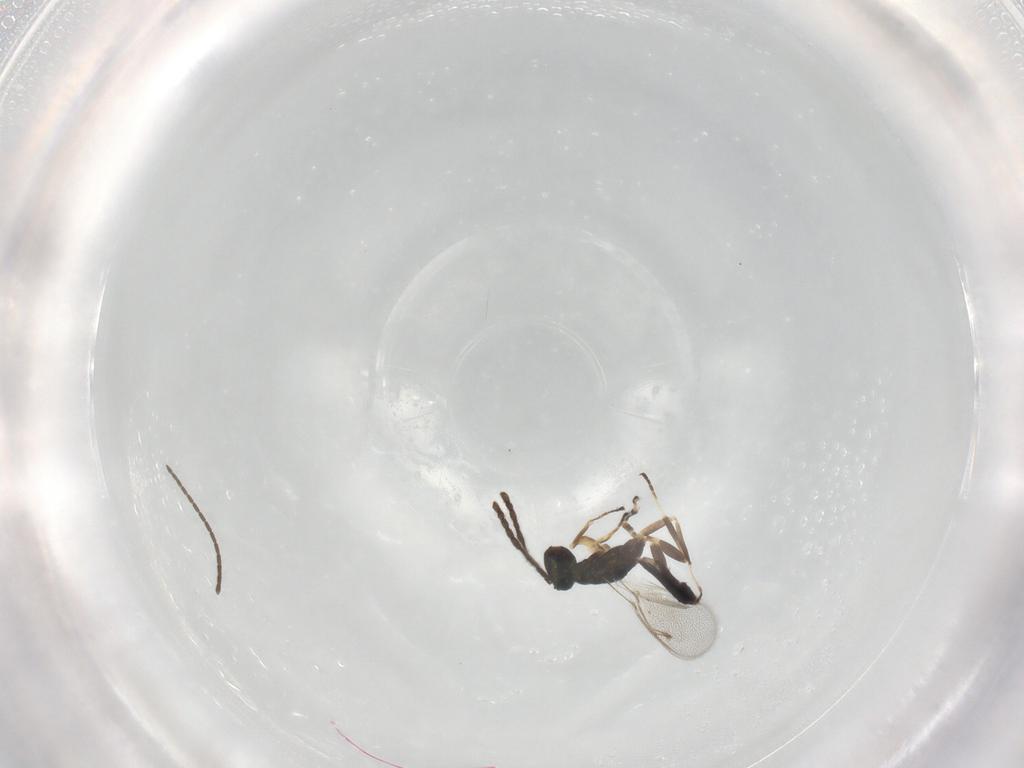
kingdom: Animalia
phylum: Arthropoda
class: Insecta
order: Hymenoptera
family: Eupelmidae
